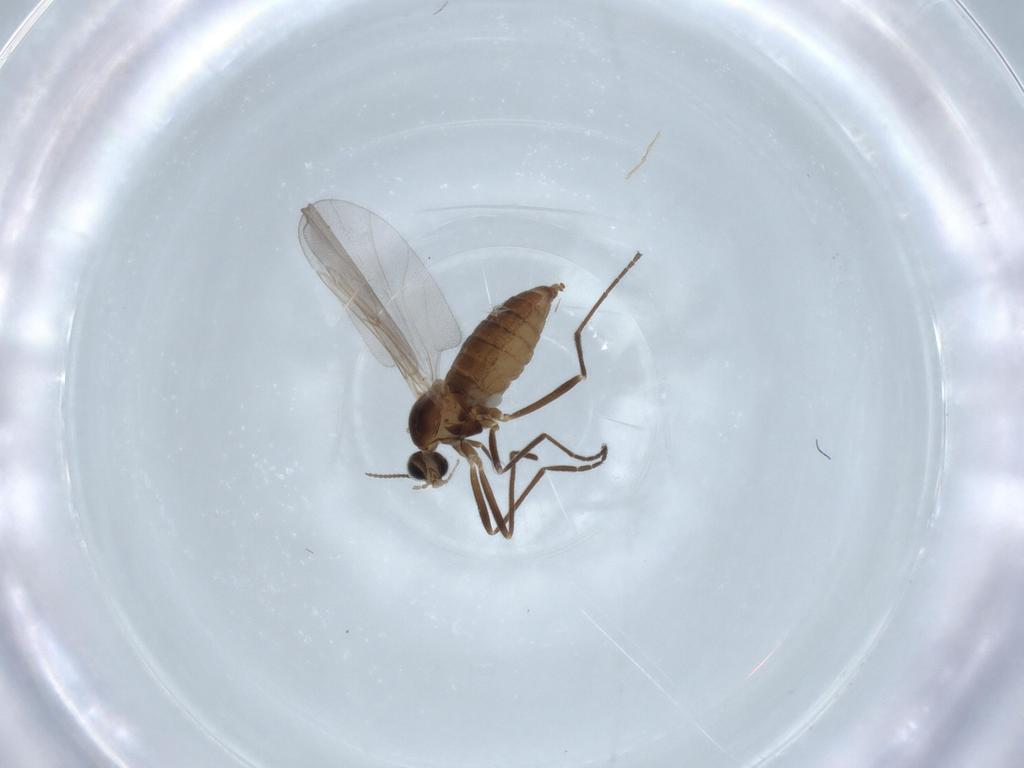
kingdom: Animalia
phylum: Arthropoda
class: Insecta
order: Diptera
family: Cecidomyiidae
